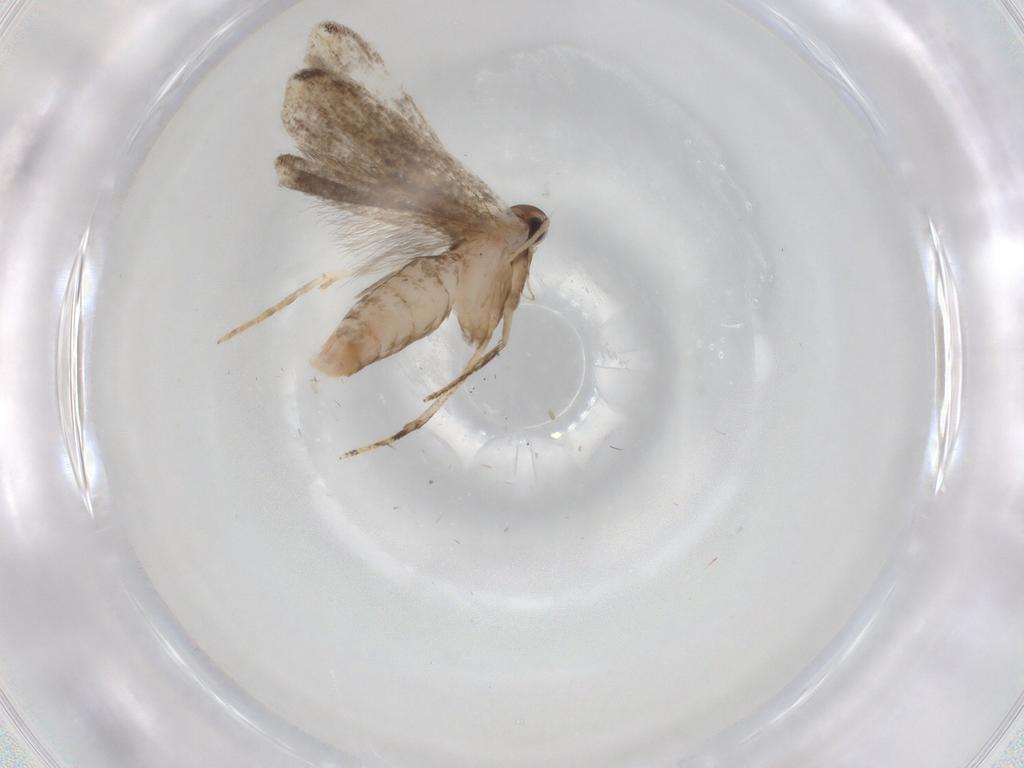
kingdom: Animalia
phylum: Arthropoda
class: Insecta
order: Lepidoptera
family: Gelechiidae
